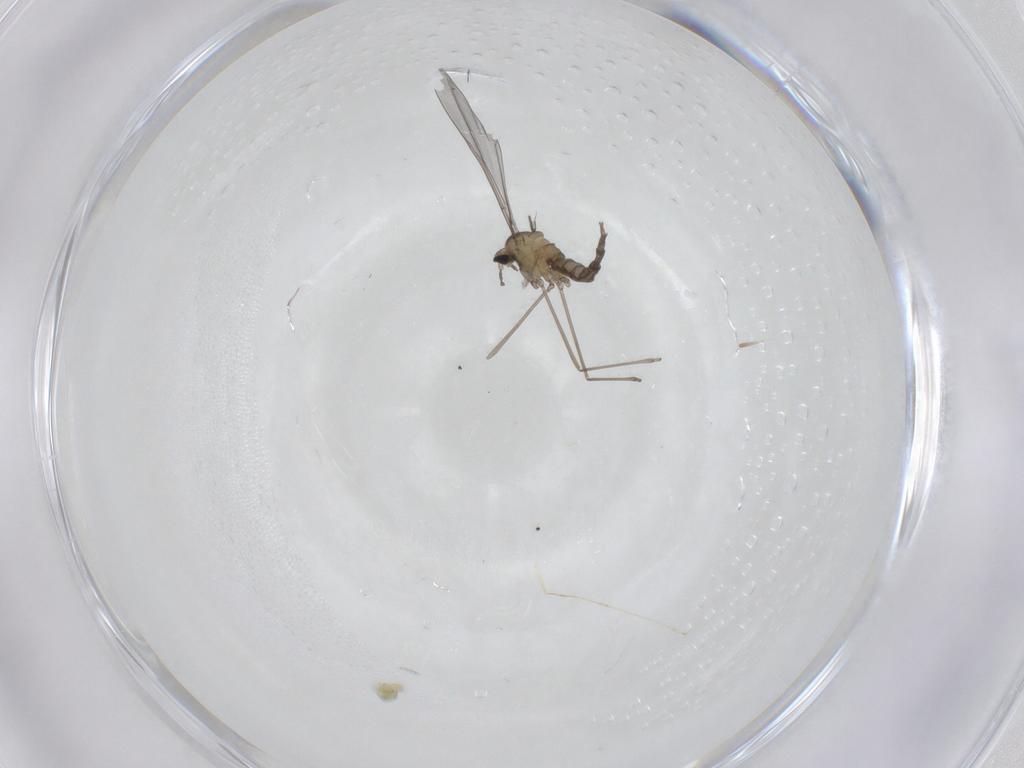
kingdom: Animalia
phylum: Arthropoda
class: Insecta
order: Diptera
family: Cecidomyiidae
